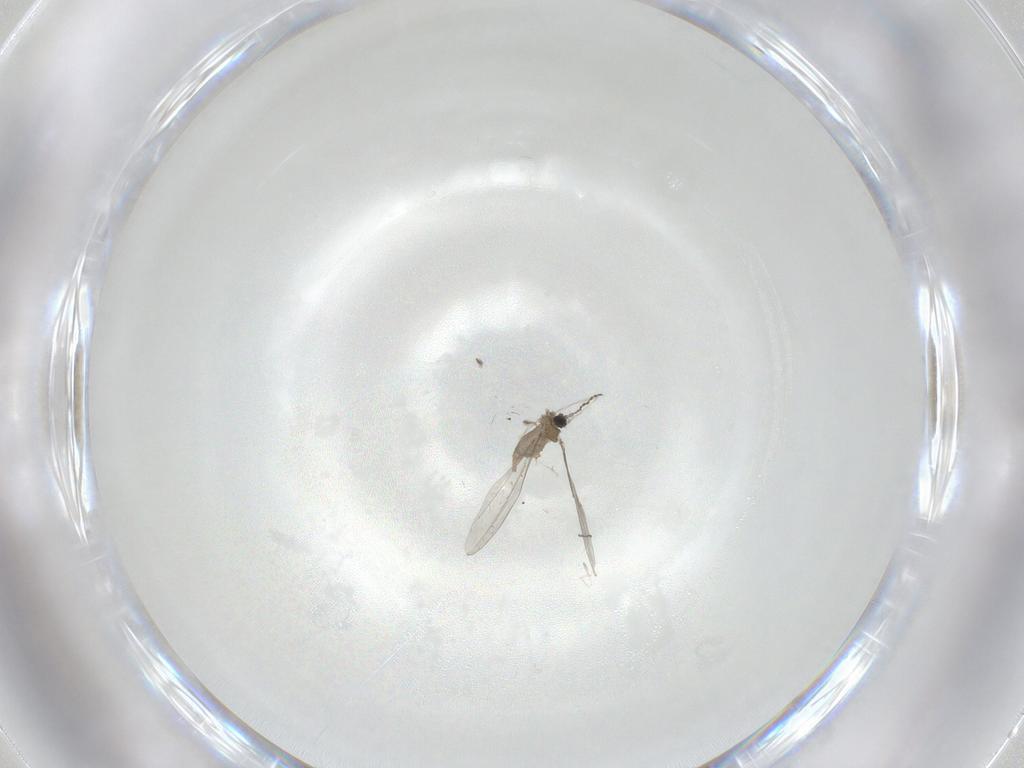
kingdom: Animalia
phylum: Arthropoda
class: Insecta
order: Diptera
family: Cecidomyiidae
